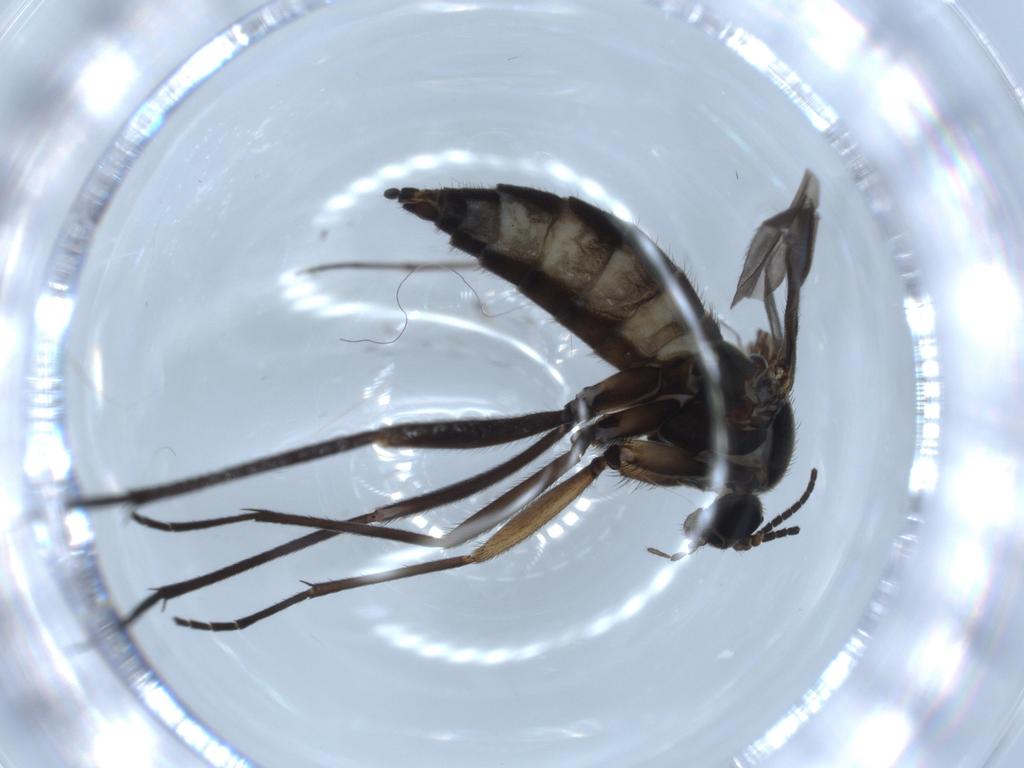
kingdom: Animalia
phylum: Arthropoda
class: Insecta
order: Diptera
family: Sciaridae
